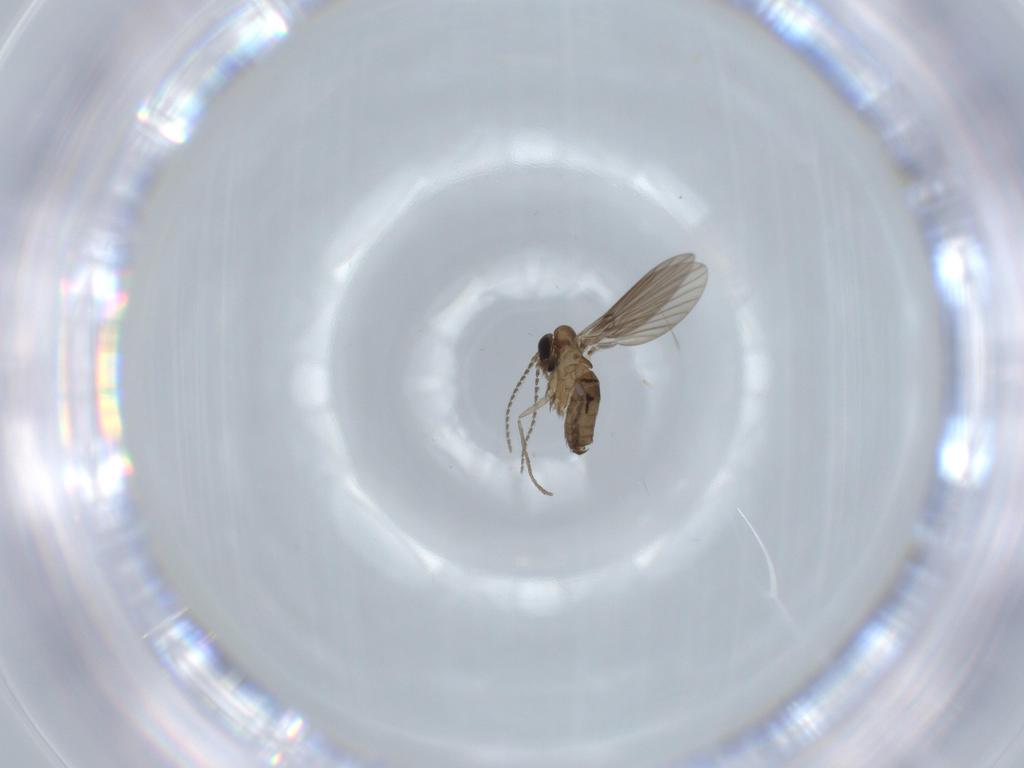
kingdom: Animalia
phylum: Arthropoda
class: Insecta
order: Diptera
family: Psychodidae
